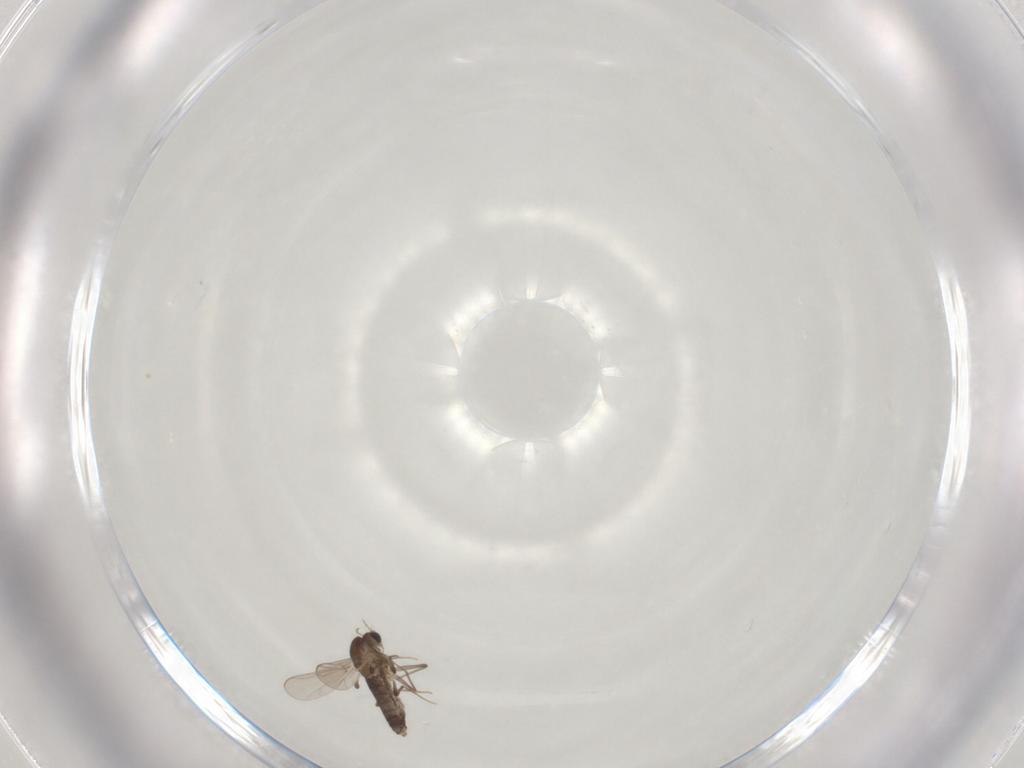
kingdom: Animalia
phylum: Arthropoda
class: Insecta
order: Diptera
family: Chironomidae
